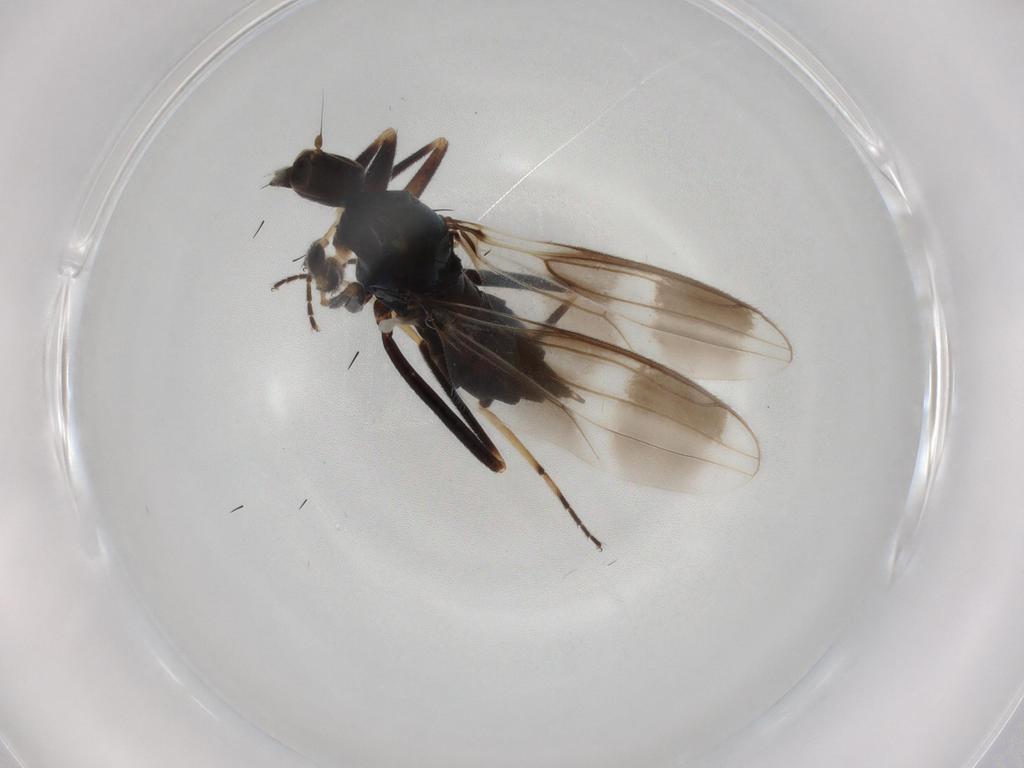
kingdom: Animalia
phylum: Arthropoda
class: Insecta
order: Diptera
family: Hybotidae
